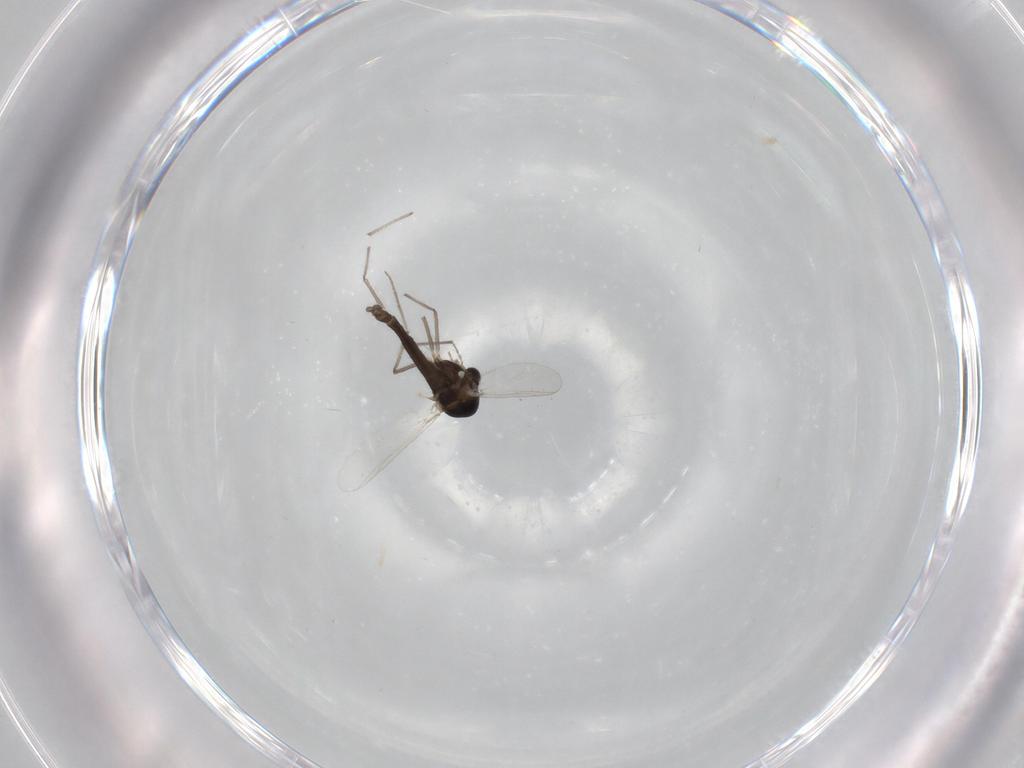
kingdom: Animalia
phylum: Arthropoda
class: Insecta
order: Diptera
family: Chironomidae
